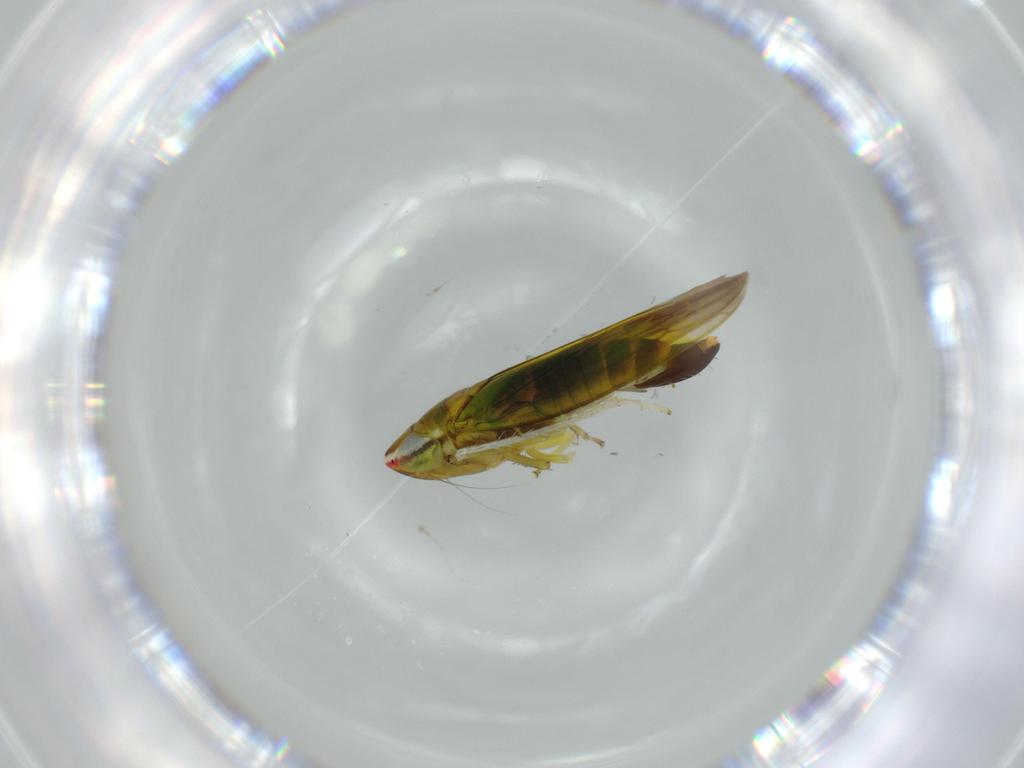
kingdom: Animalia
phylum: Arthropoda
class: Insecta
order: Hemiptera
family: Cicadellidae
